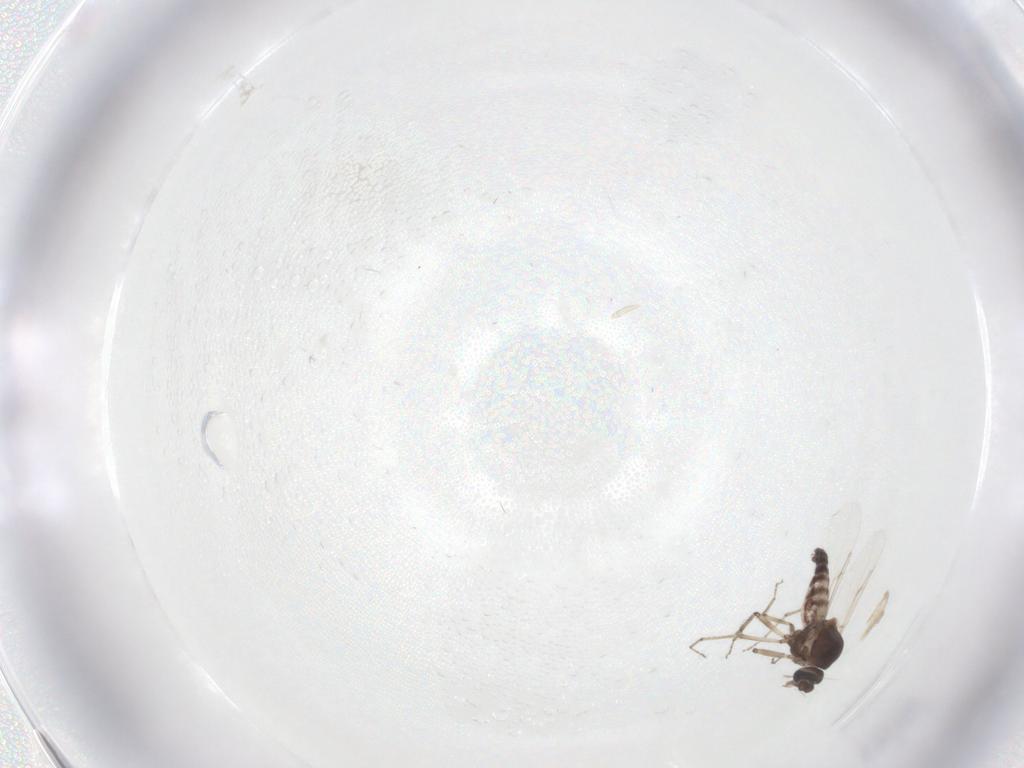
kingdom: Animalia
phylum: Arthropoda
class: Insecta
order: Diptera
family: Ceratopogonidae
